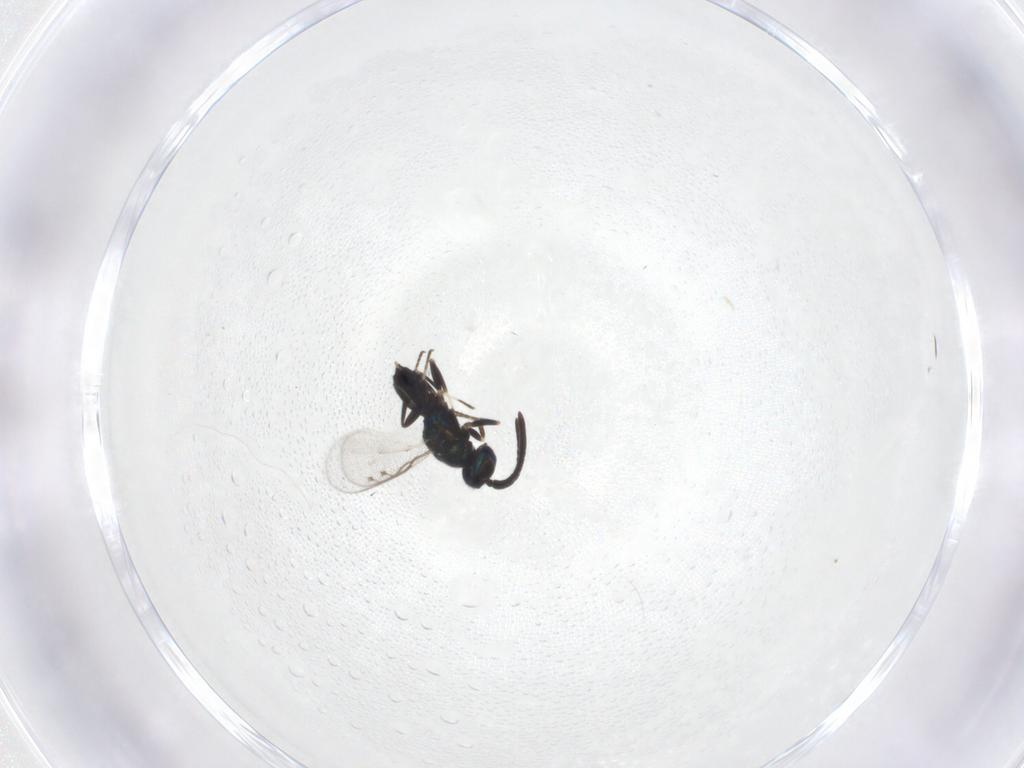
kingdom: Animalia
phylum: Arthropoda
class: Insecta
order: Hymenoptera
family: Eupelmidae
